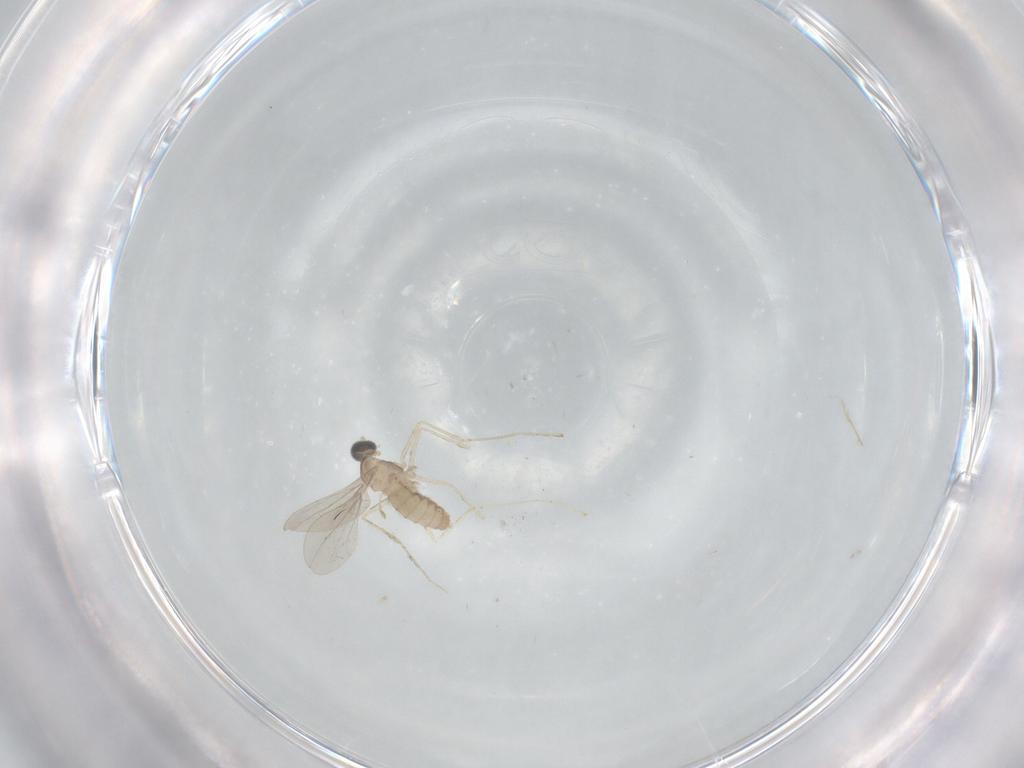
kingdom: Animalia
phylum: Arthropoda
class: Insecta
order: Diptera
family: Cecidomyiidae
